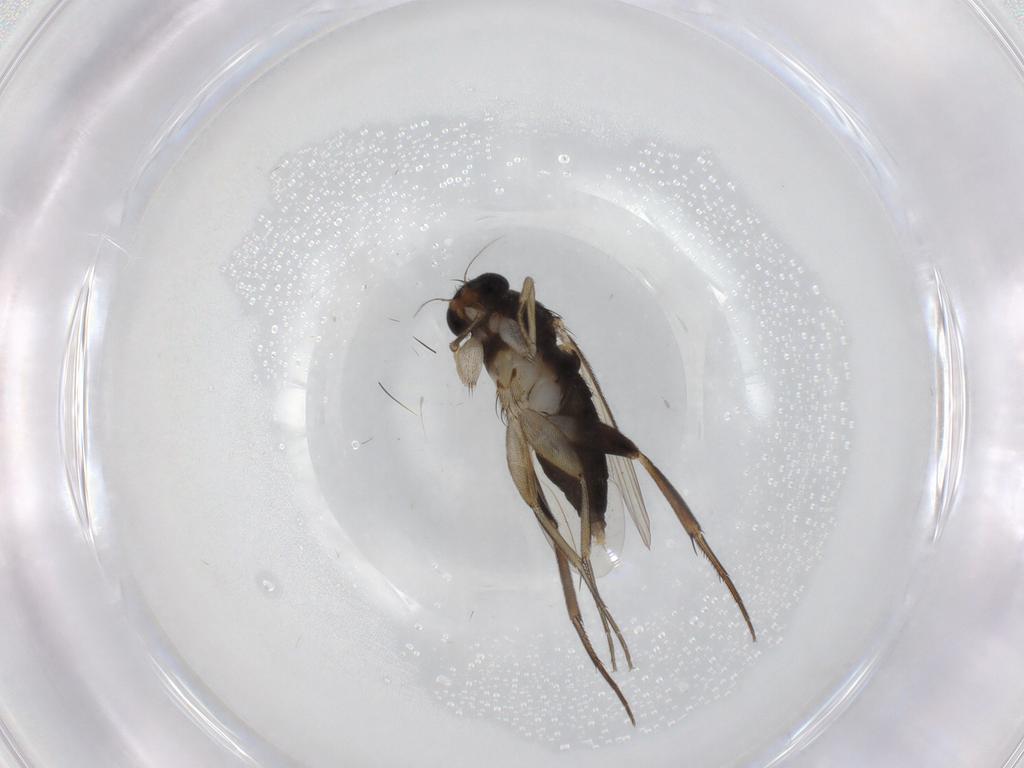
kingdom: Animalia
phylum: Arthropoda
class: Insecta
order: Diptera
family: Phoridae
